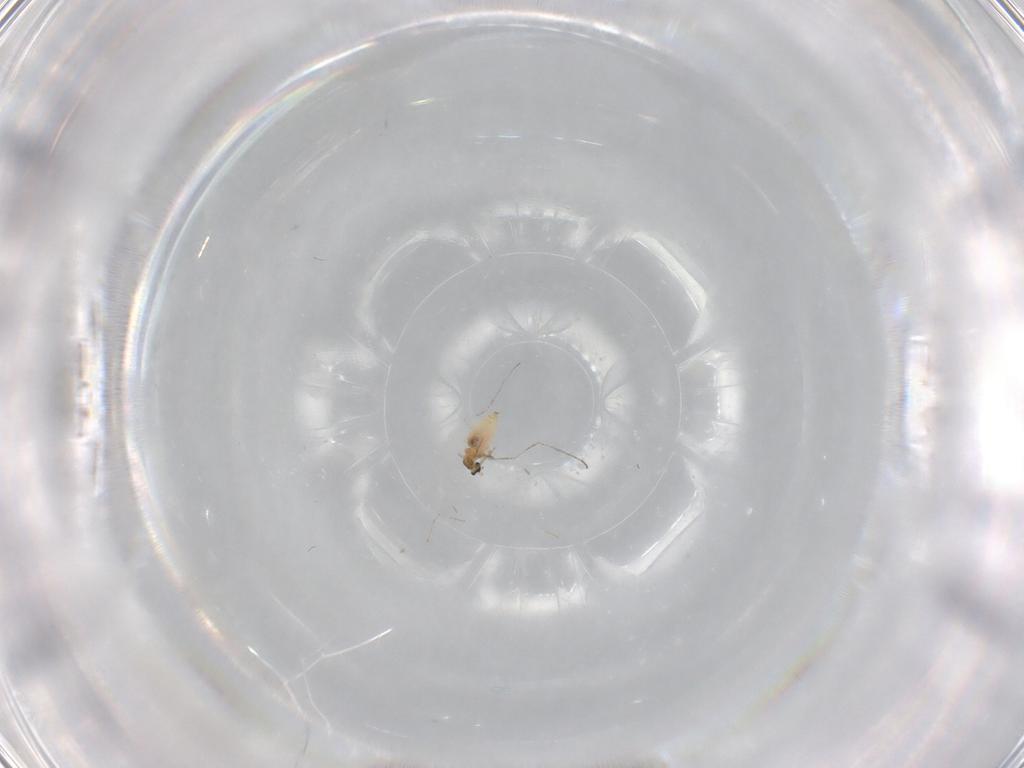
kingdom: Animalia
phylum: Arthropoda
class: Insecta
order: Diptera
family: Cecidomyiidae
